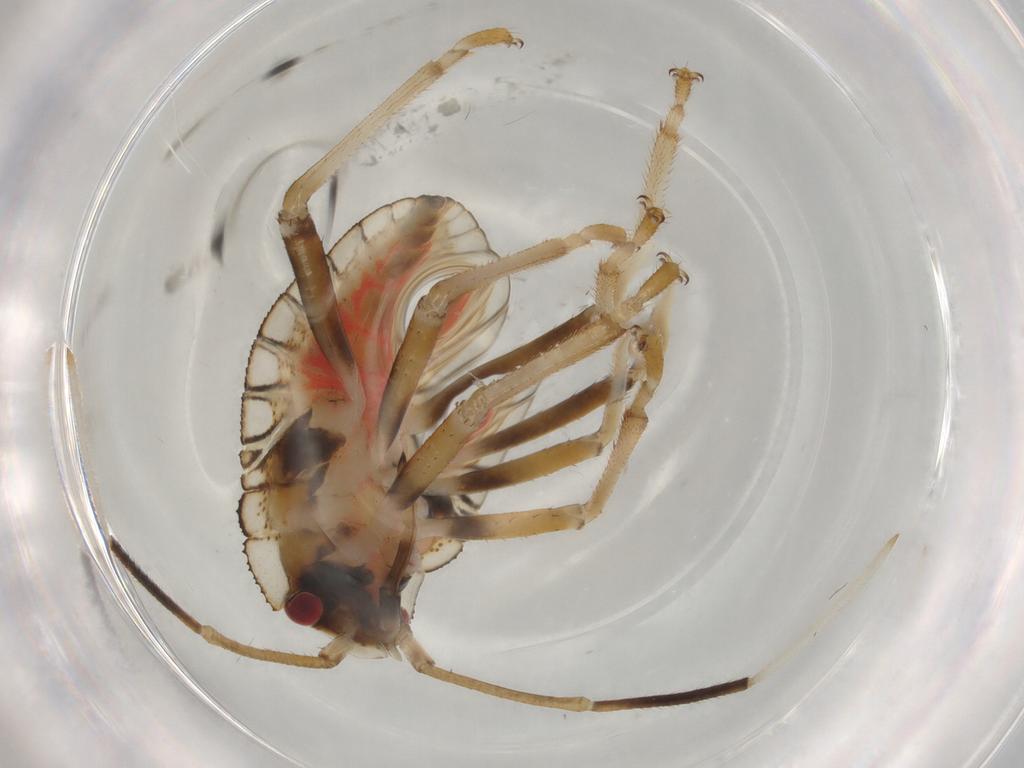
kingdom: Animalia
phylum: Arthropoda
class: Insecta
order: Hemiptera
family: Pentatomidae
